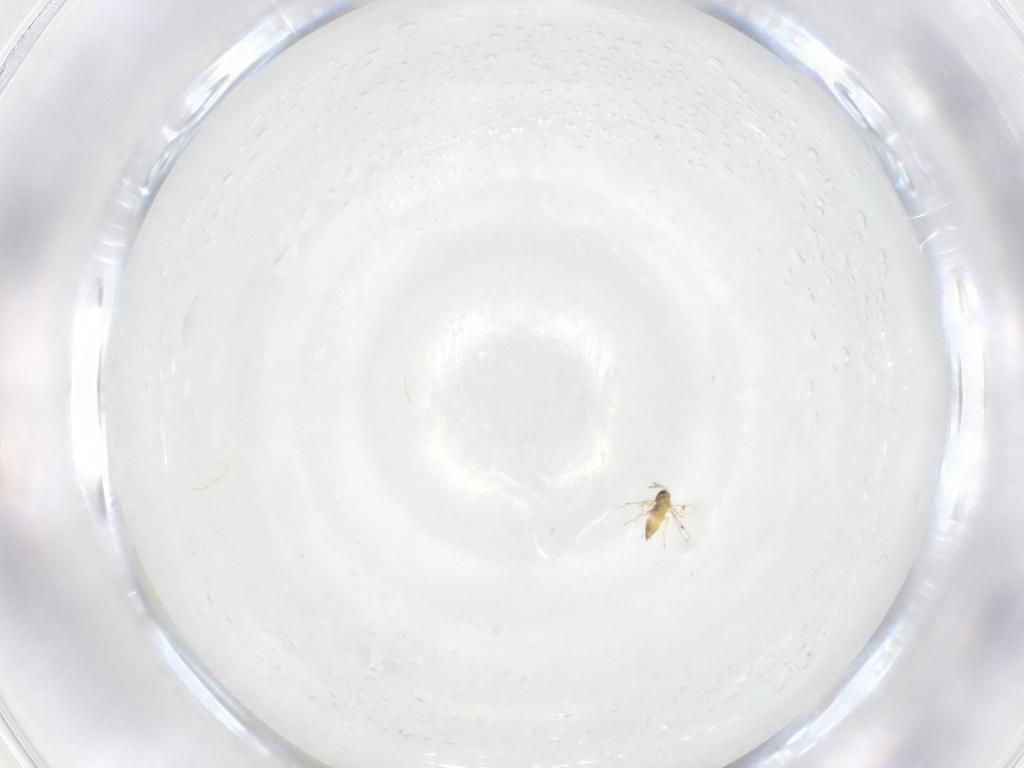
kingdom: Animalia
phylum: Arthropoda
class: Insecta
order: Hymenoptera
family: Trichogrammatidae
